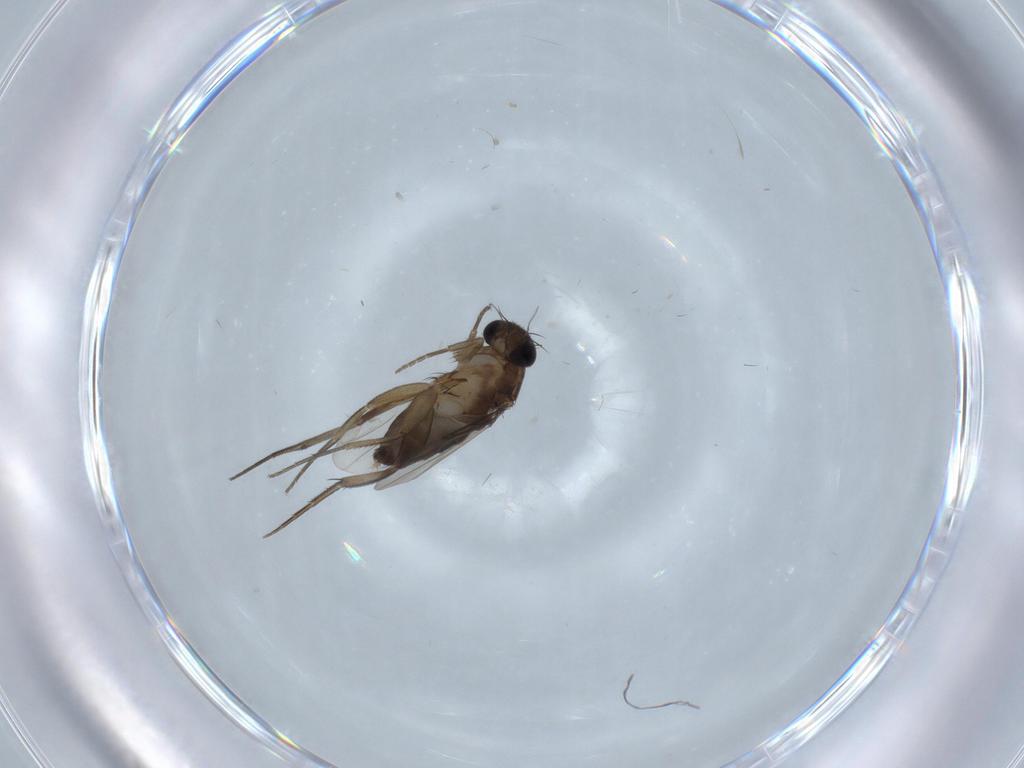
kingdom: Animalia
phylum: Arthropoda
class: Insecta
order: Diptera
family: Phoridae
